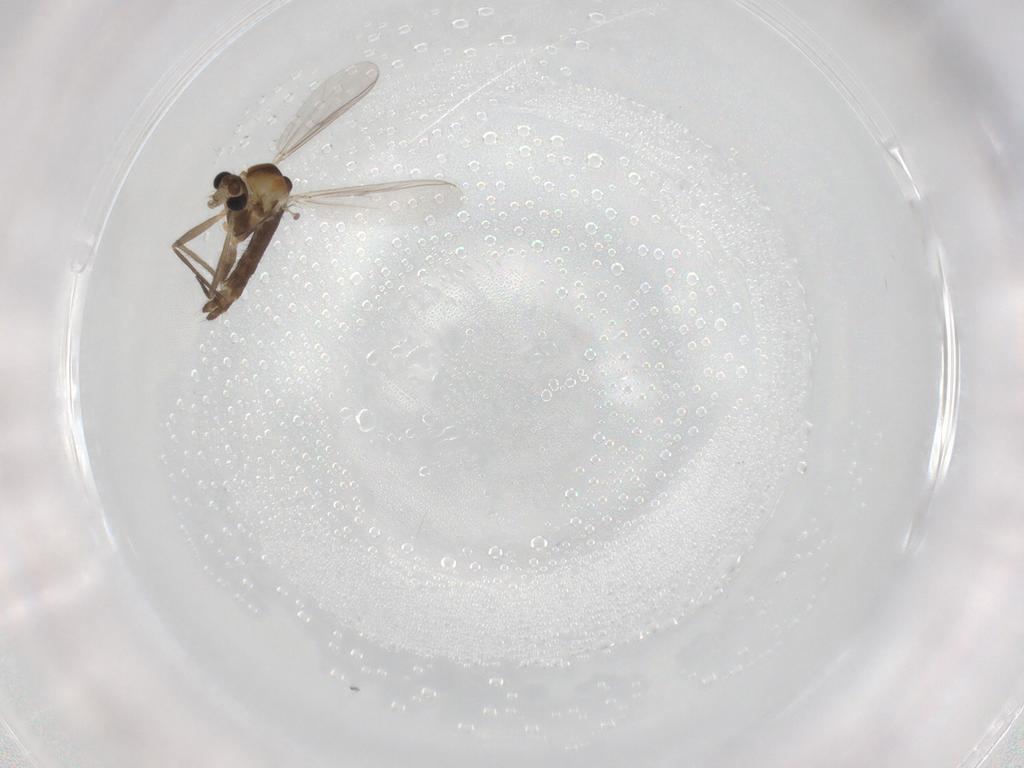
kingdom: Animalia
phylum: Arthropoda
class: Insecta
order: Diptera
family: Chironomidae
